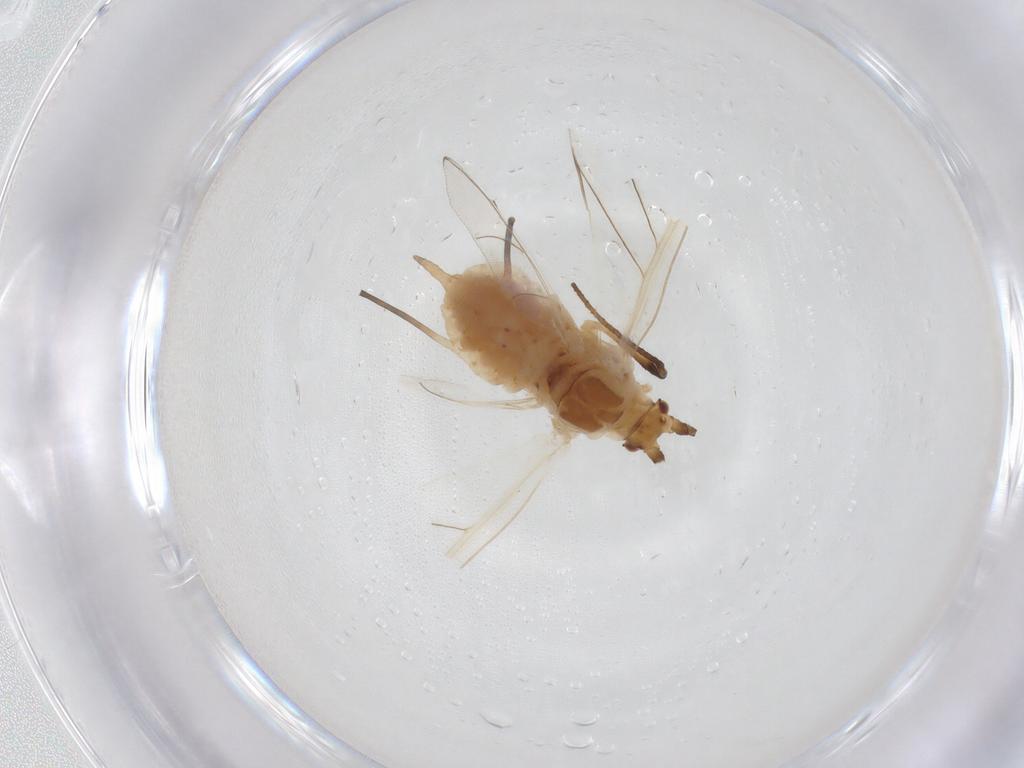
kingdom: Animalia
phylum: Arthropoda
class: Insecta
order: Hemiptera
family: Aphididae
